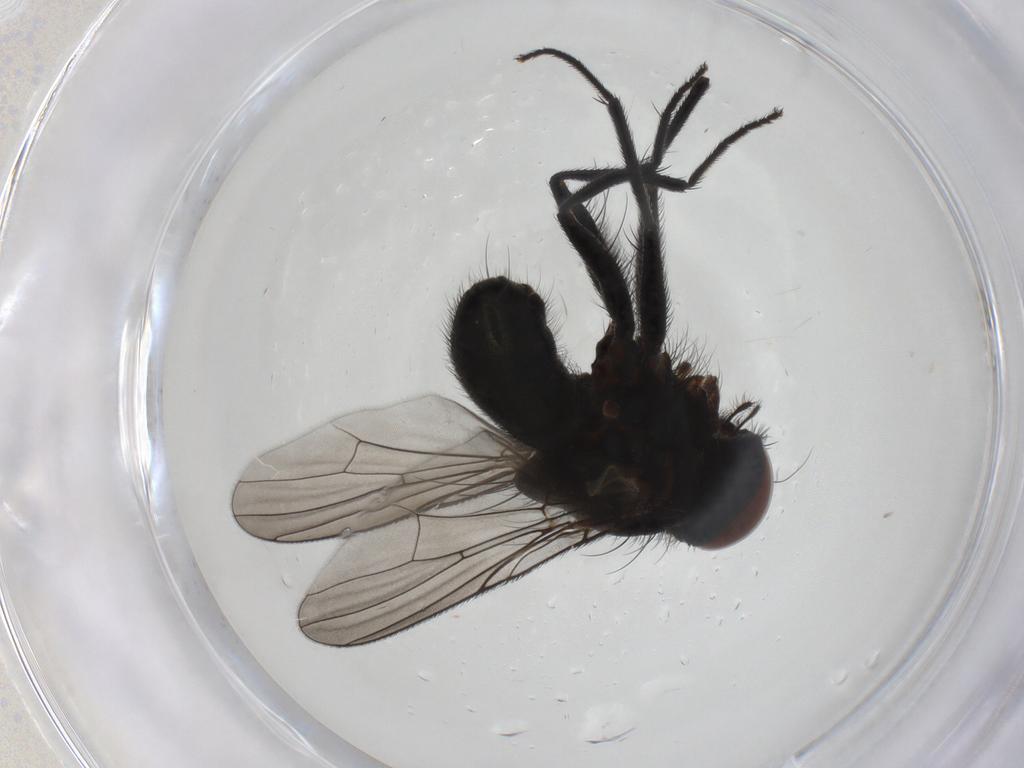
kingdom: Animalia
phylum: Arthropoda
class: Insecta
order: Diptera
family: Muscidae
